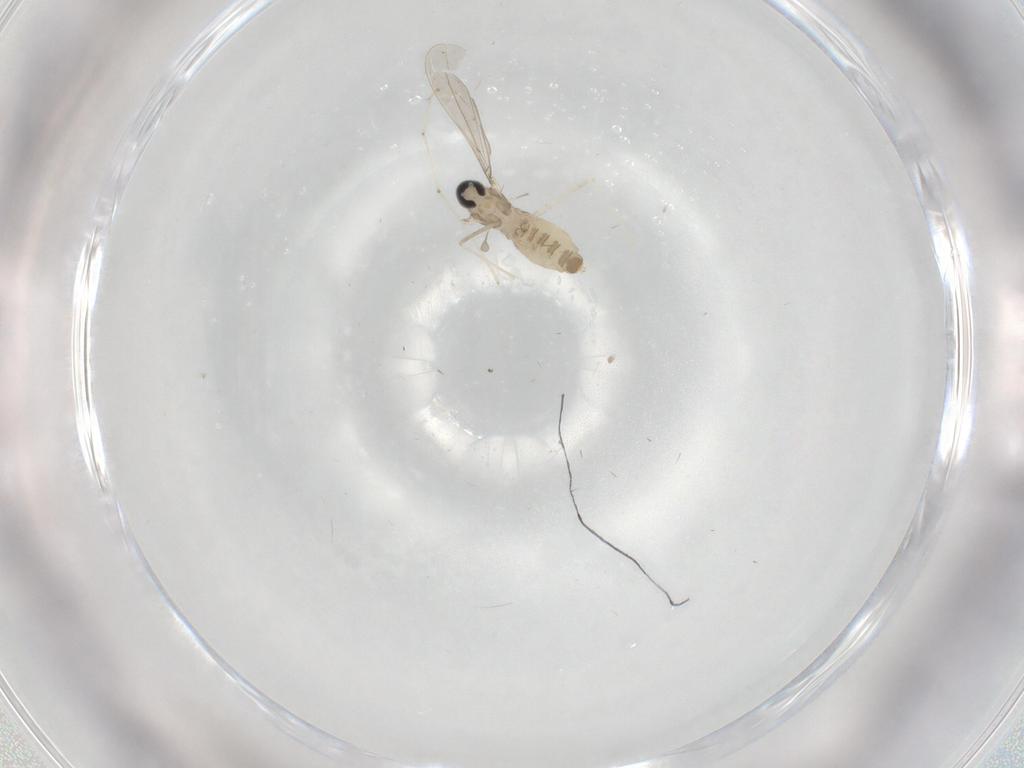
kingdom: Animalia
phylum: Arthropoda
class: Insecta
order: Diptera
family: Cecidomyiidae
